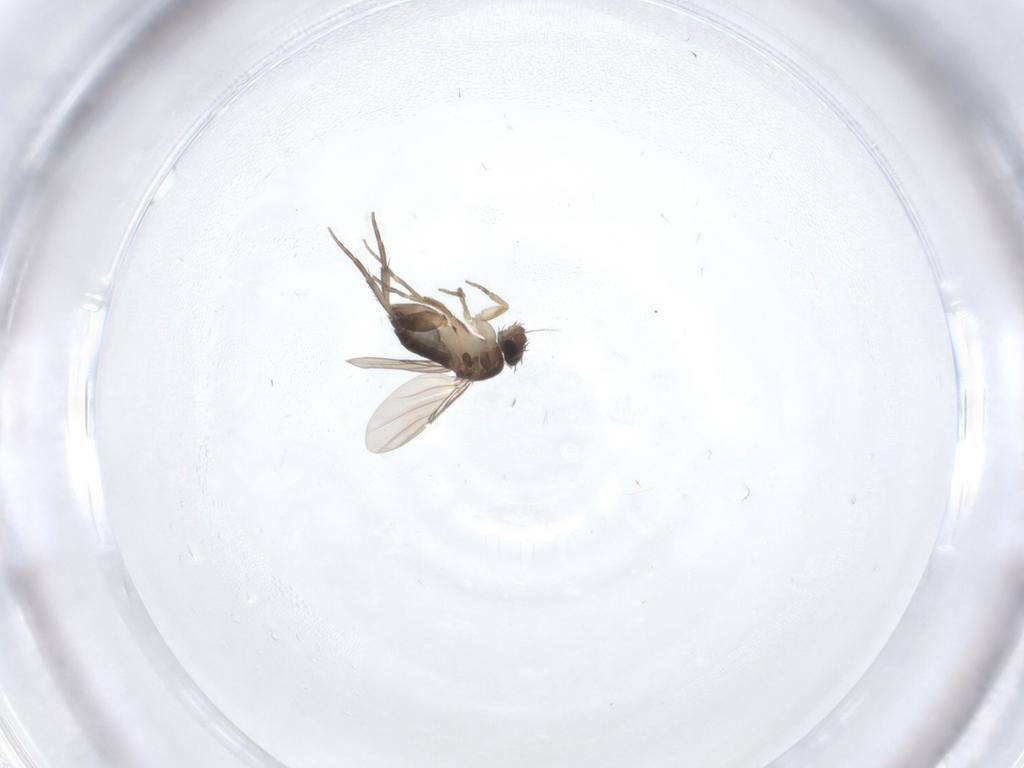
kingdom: Animalia
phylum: Arthropoda
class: Insecta
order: Diptera
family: Phoridae
